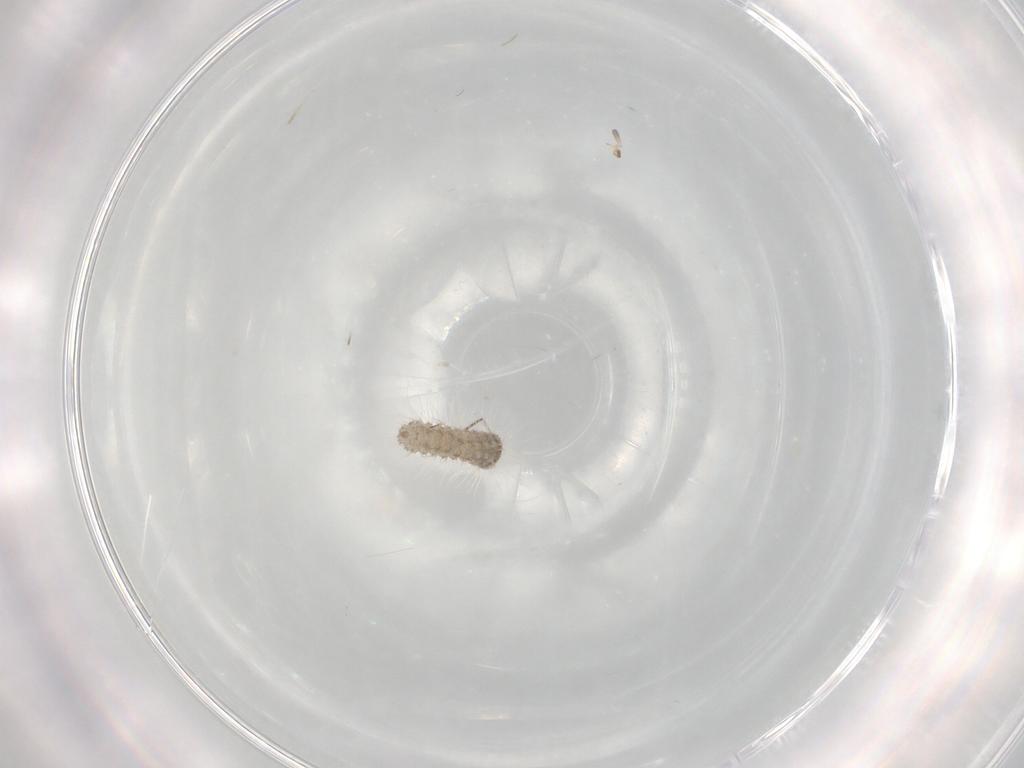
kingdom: Animalia
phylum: Arthropoda
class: Insecta
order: Diptera
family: Chironomidae
